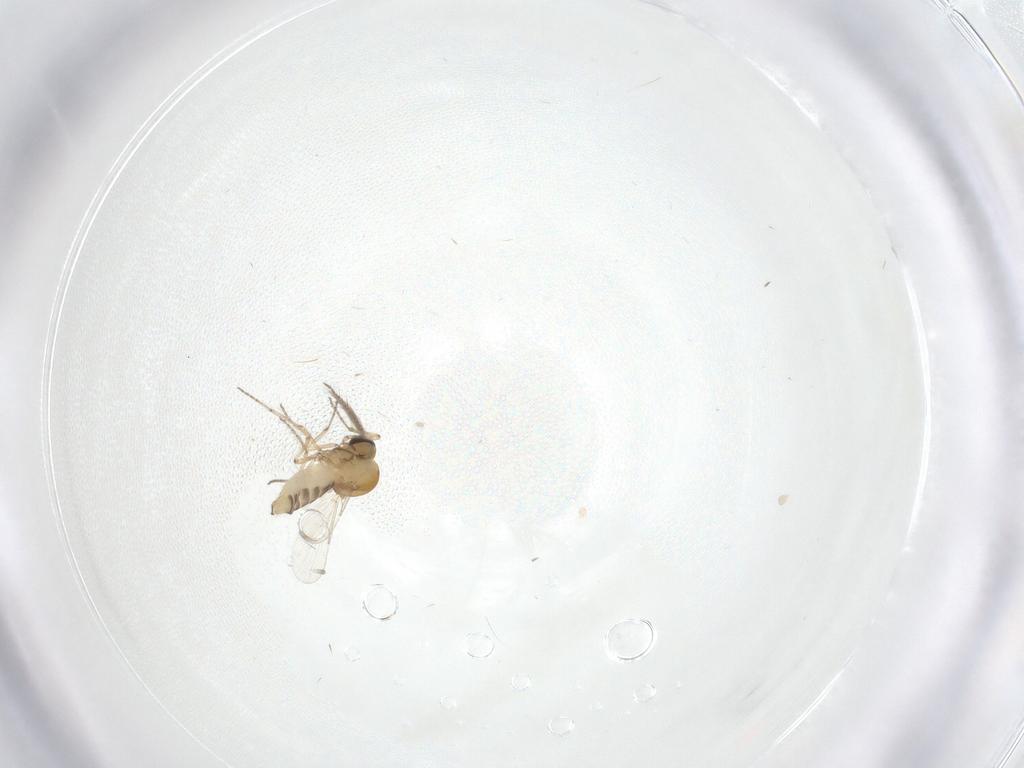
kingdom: Animalia
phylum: Arthropoda
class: Insecta
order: Diptera
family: Ceratopogonidae
